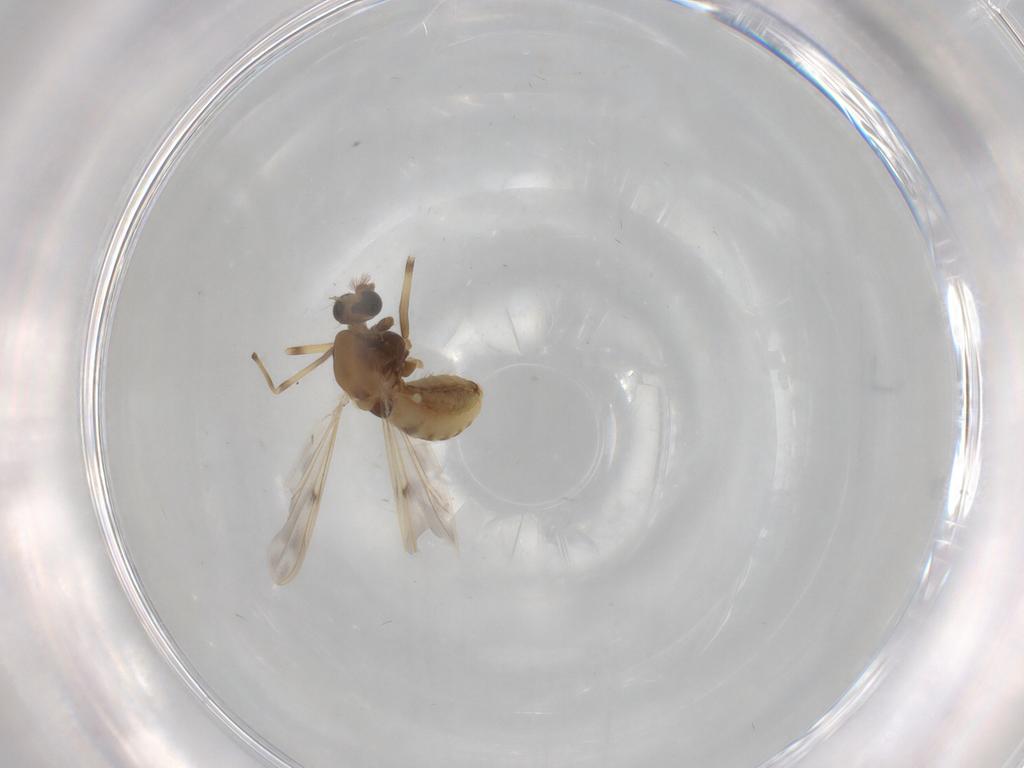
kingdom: Animalia
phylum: Arthropoda
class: Insecta
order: Diptera
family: Chironomidae
